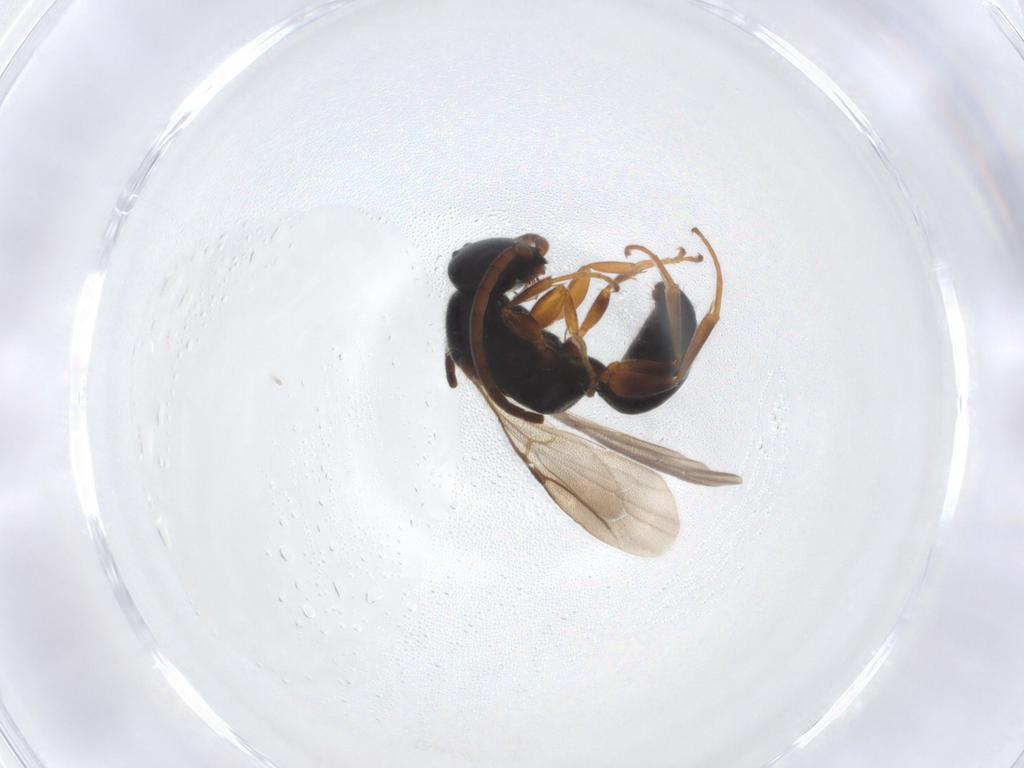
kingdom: Animalia
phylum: Arthropoda
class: Insecta
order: Hymenoptera
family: Bethylidae
